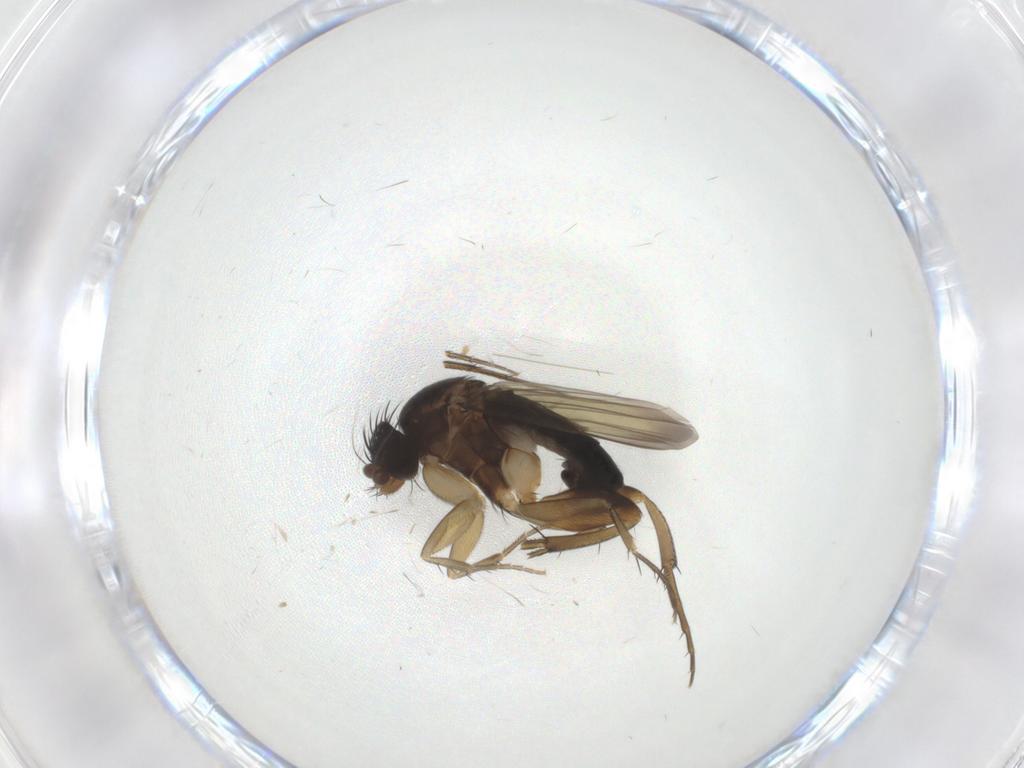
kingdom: Animalia
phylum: Arthropoda
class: Insecta
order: Diptera
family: Phoridae
